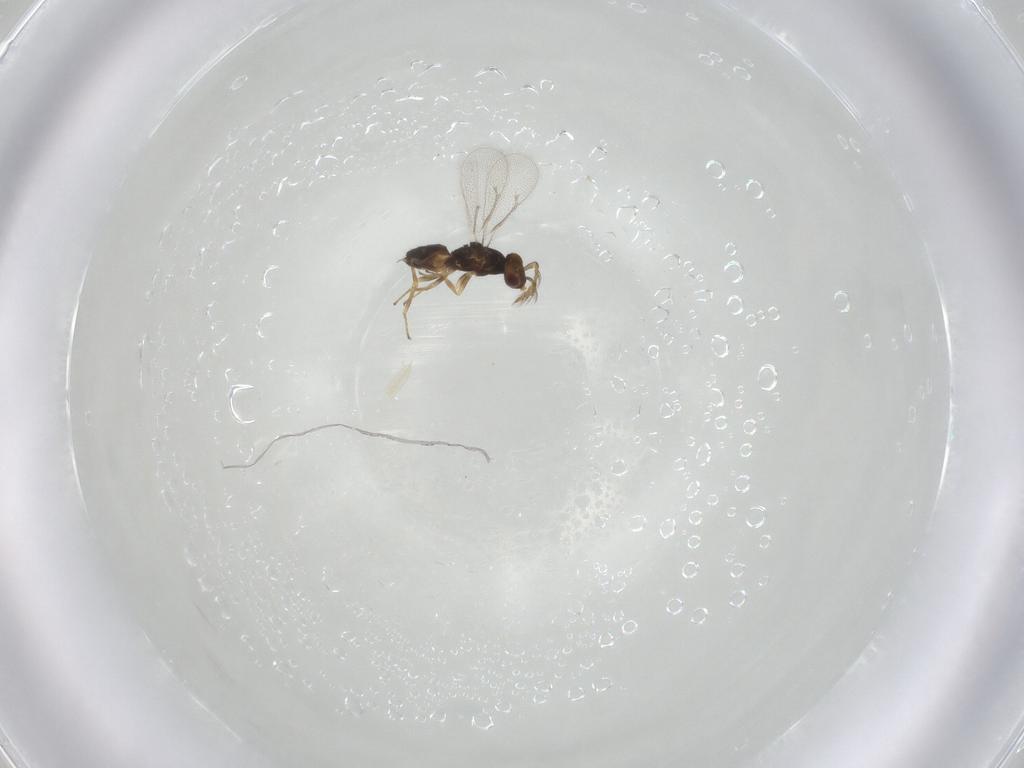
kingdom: Animalia
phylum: Arthropoda
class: Insecta
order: Hymenoptera
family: Eulophidae
